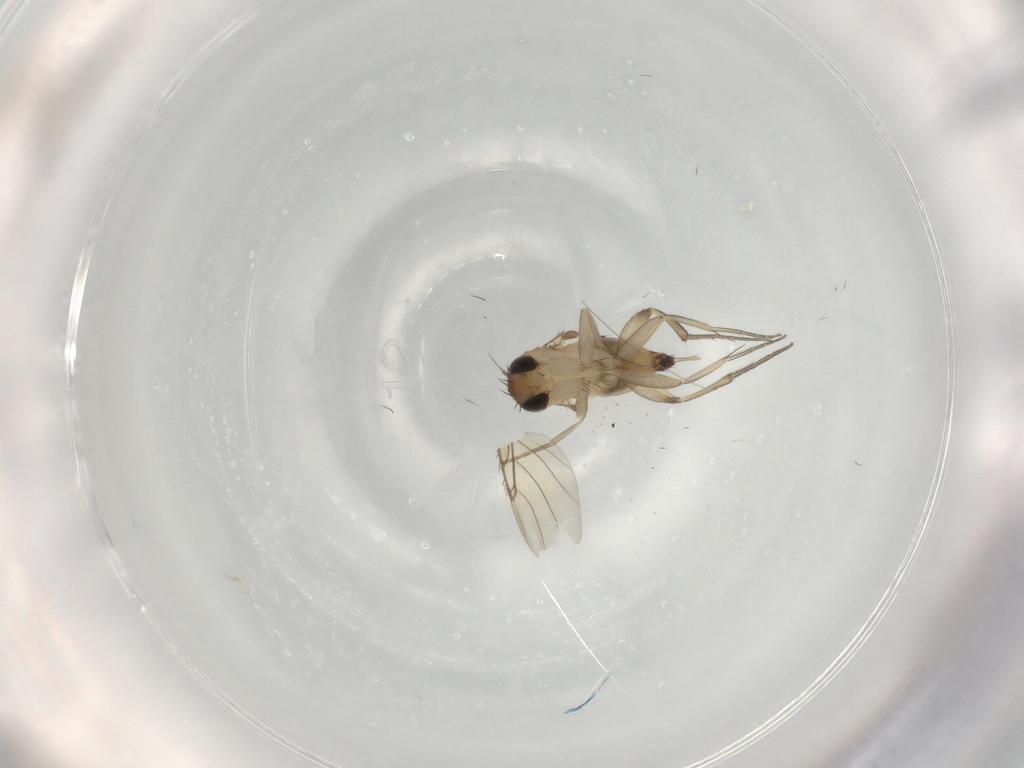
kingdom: Animalia
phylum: Arthropoda
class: Insecta
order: Diptera
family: Phoridae
